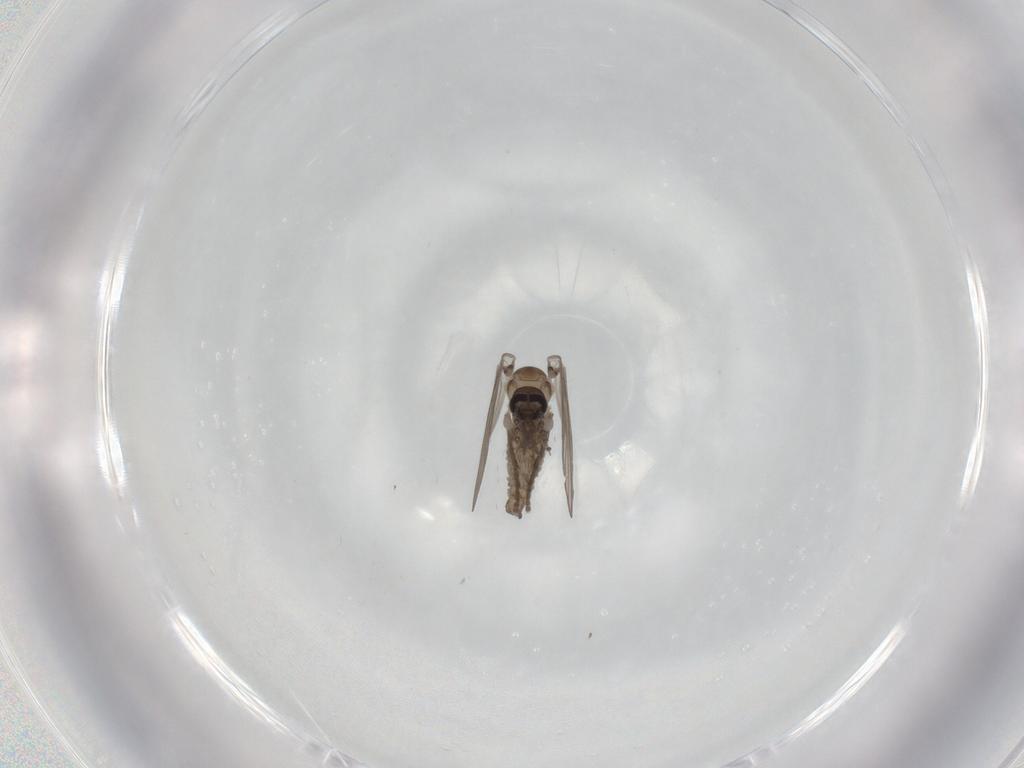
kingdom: Animalia
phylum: Arthropoda
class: Insecta
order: Diptera
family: Psychodidae
